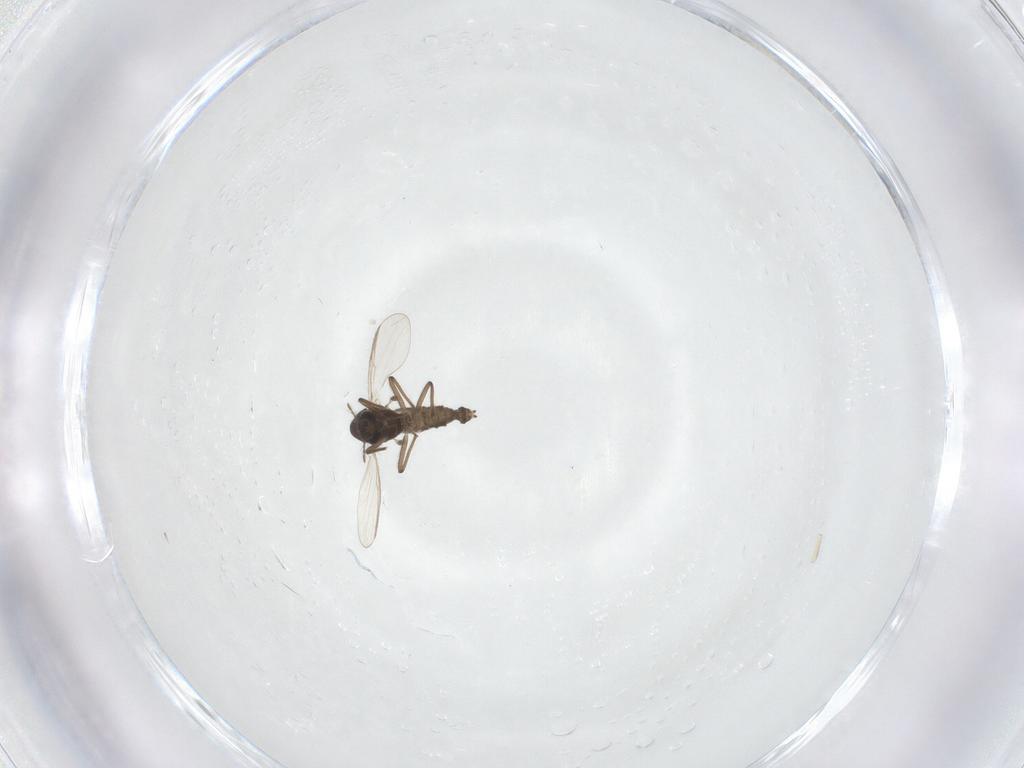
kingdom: Animalia
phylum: Arthropoda
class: Insecta
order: Diptera
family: Chironomidae
